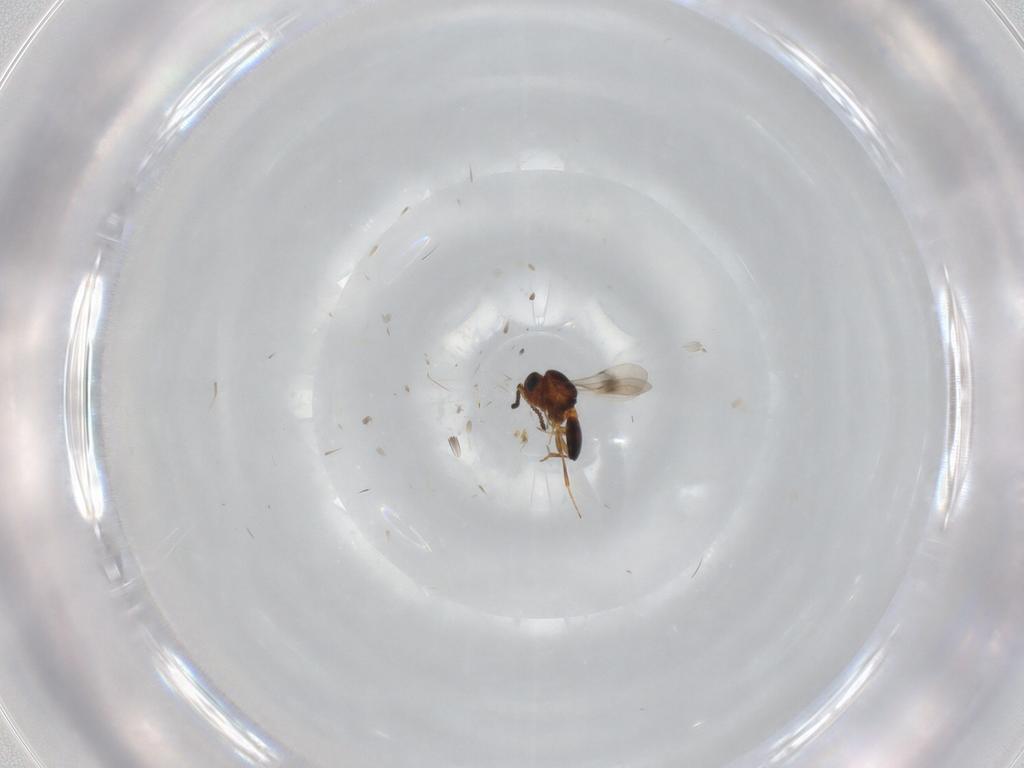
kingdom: Animalia
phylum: Arthropoda
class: Insecta
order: Hymenoptera
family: Scelionidae
